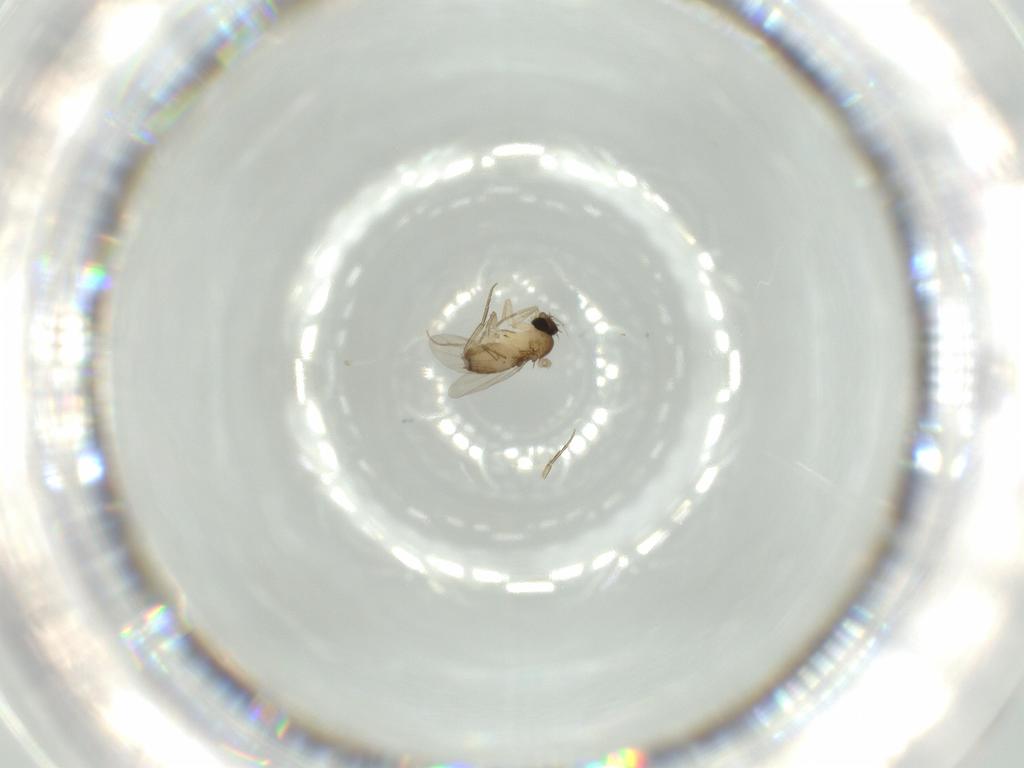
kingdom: Animalia
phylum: Arthropoda
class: Insecta
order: Diptera
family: Phoridae
